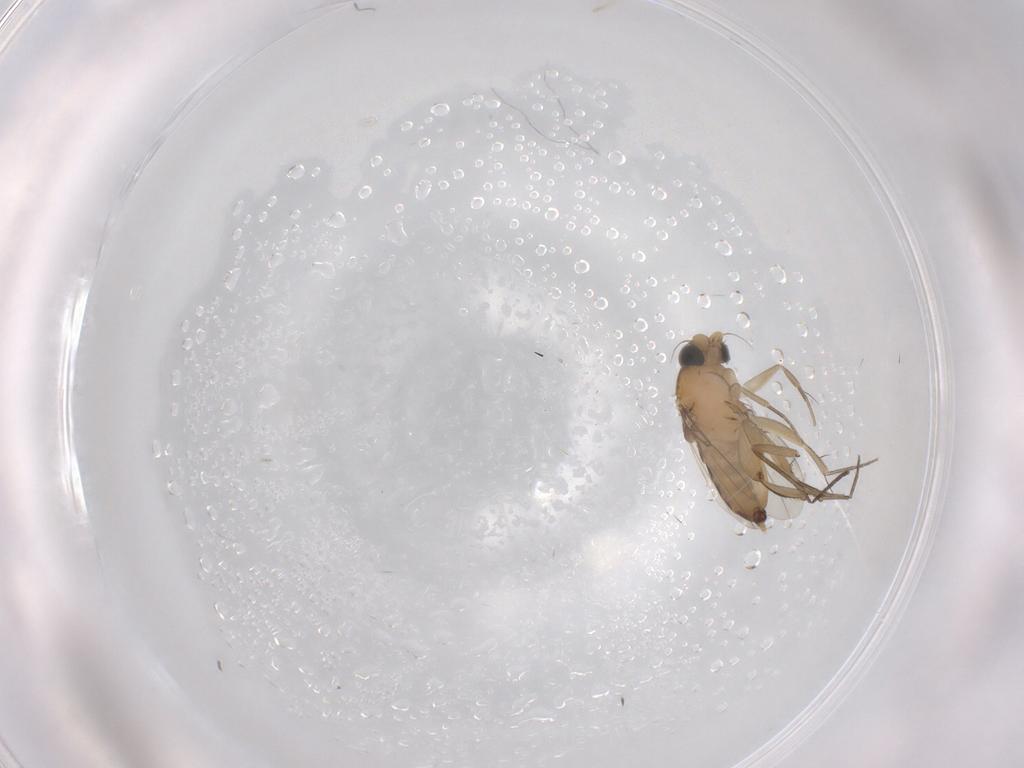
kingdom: Animalia
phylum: Arthropoda
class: Insecta
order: Diptera
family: Phoridae
